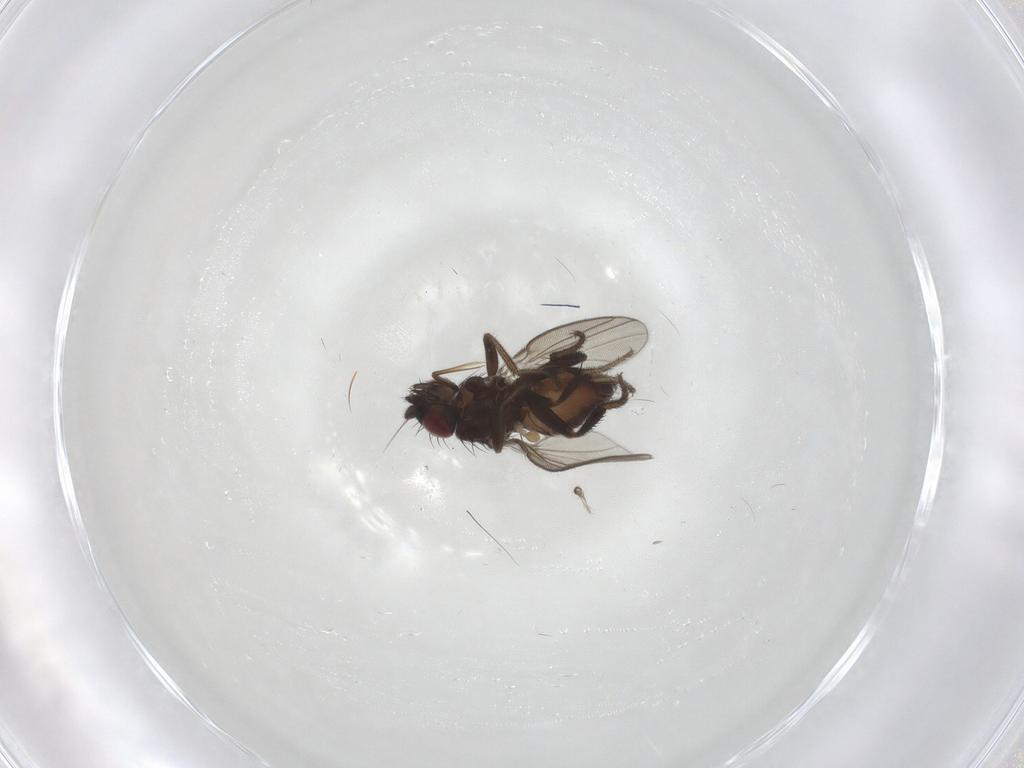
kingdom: Animalia
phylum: Arthropoda
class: Insecta
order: Diptera
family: Milichiidae
